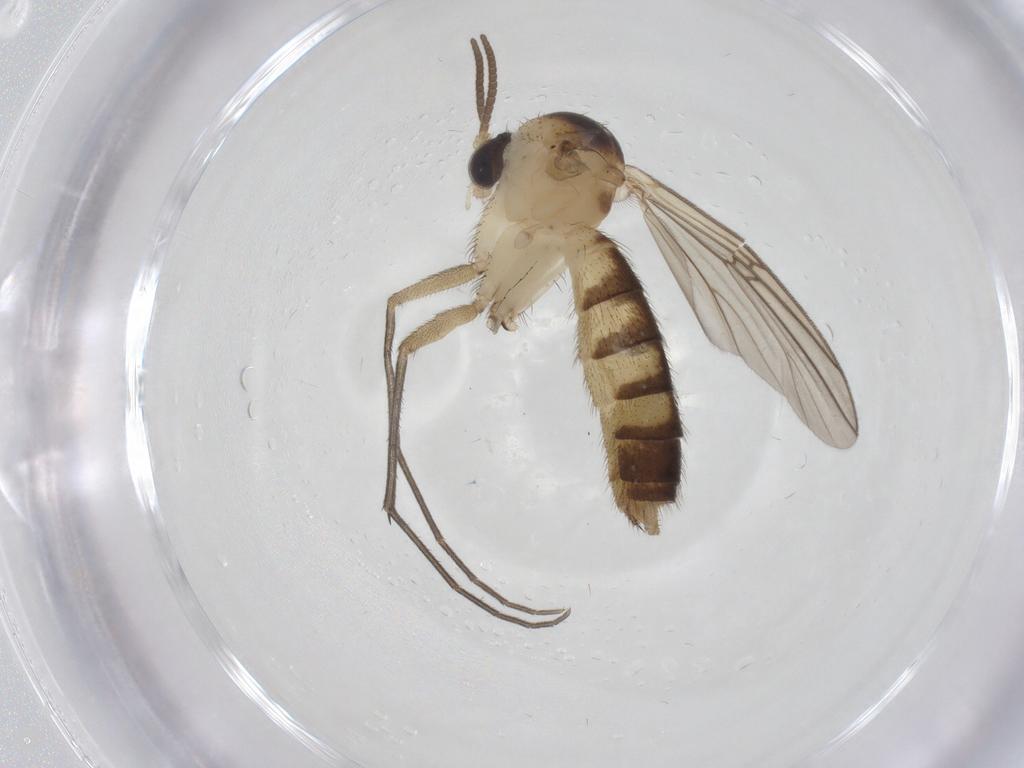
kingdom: Animalia
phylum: Arthropoda
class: Insecta
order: Diptera
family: Mycetophilidae
